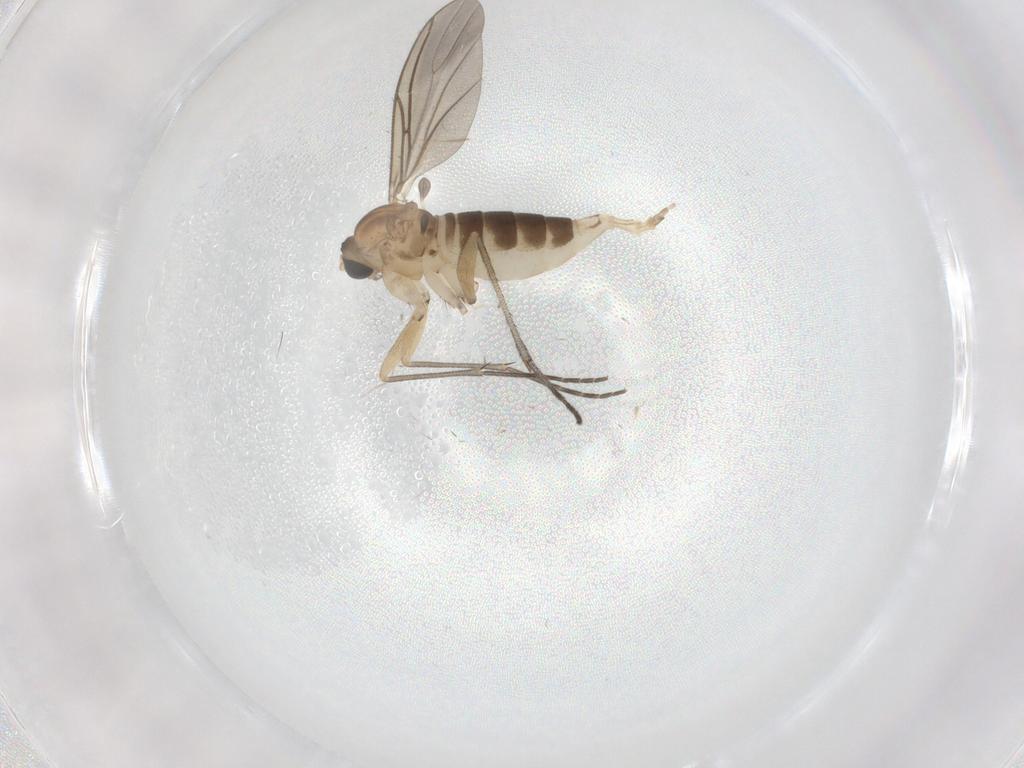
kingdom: Animalia
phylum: Arthropoda
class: Insecta
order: Diptera
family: Sciaridae
